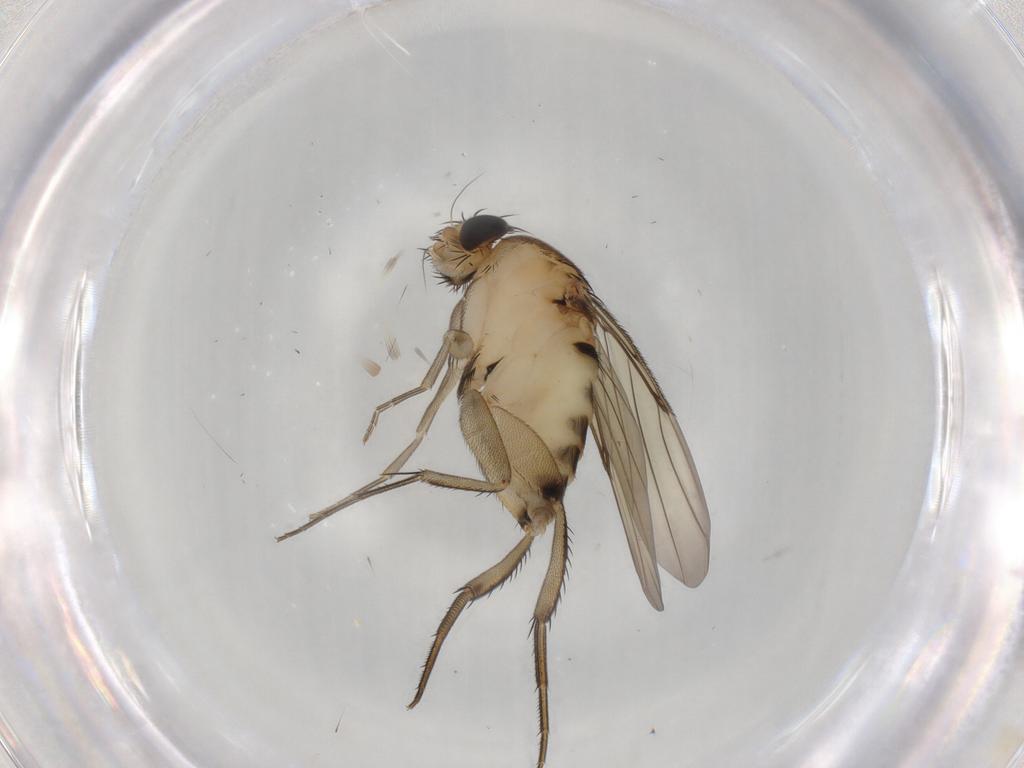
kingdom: Animalia
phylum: Arthropoda
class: Insecta
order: Diptera
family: Phoridae
